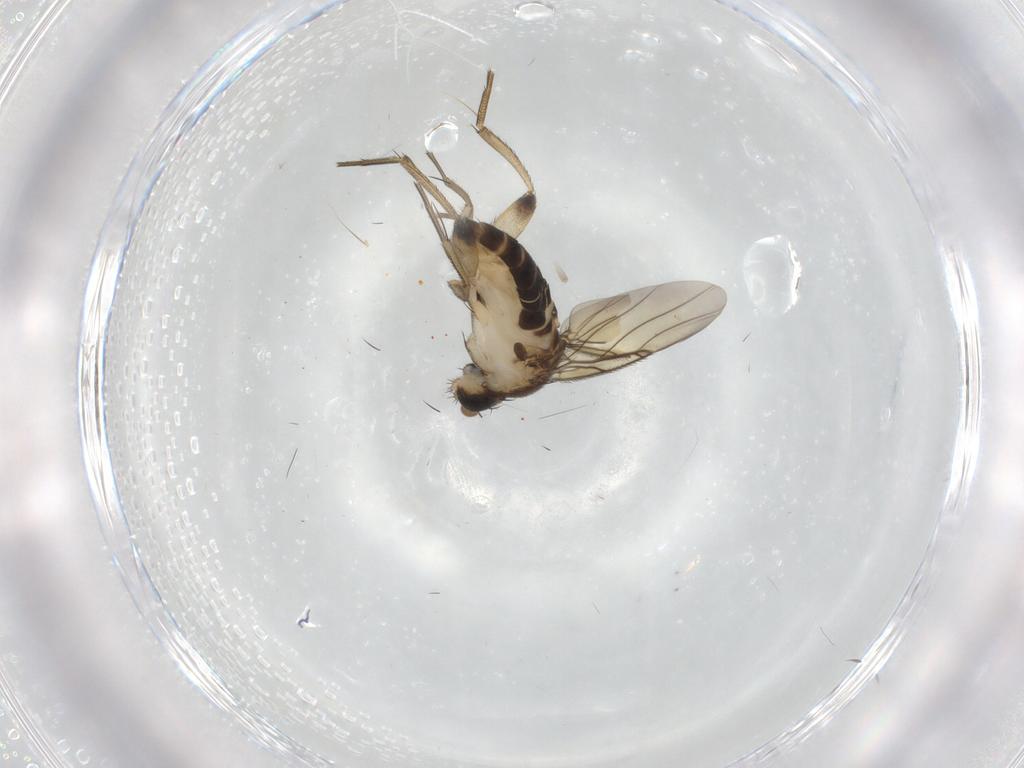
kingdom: Animalia
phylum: Arthropoda
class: Insecta
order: Diptera
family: Phoridae
